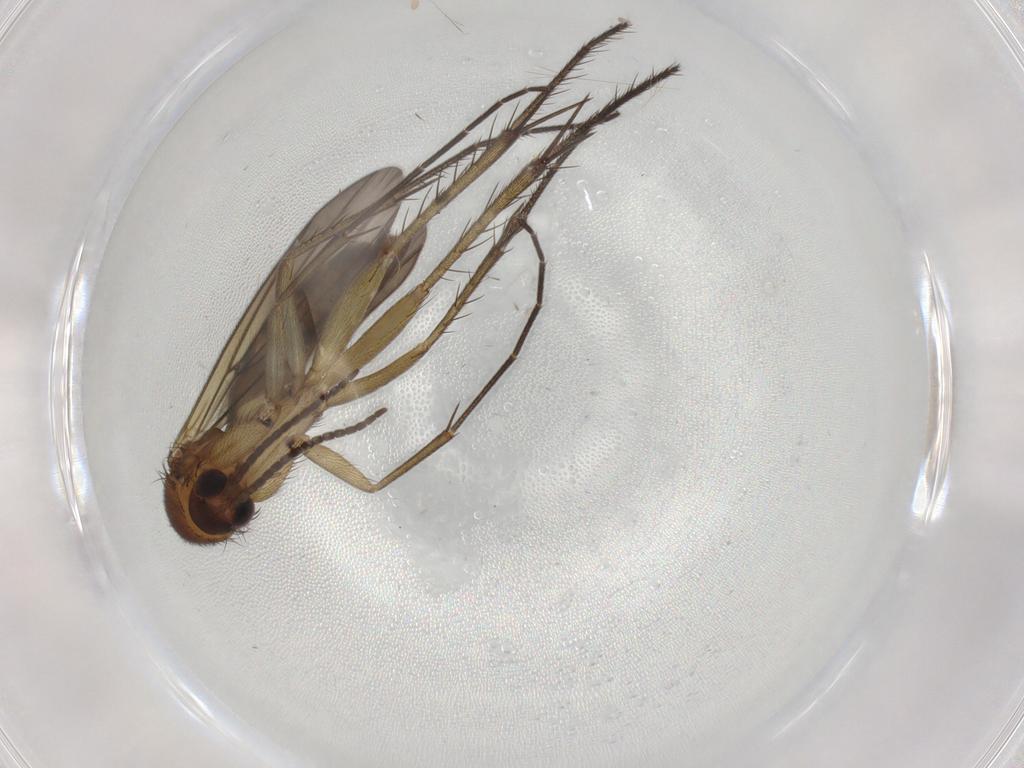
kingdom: Animalia
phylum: Arthropoda
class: Insecta
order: Diptera
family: Mycetophilidae
